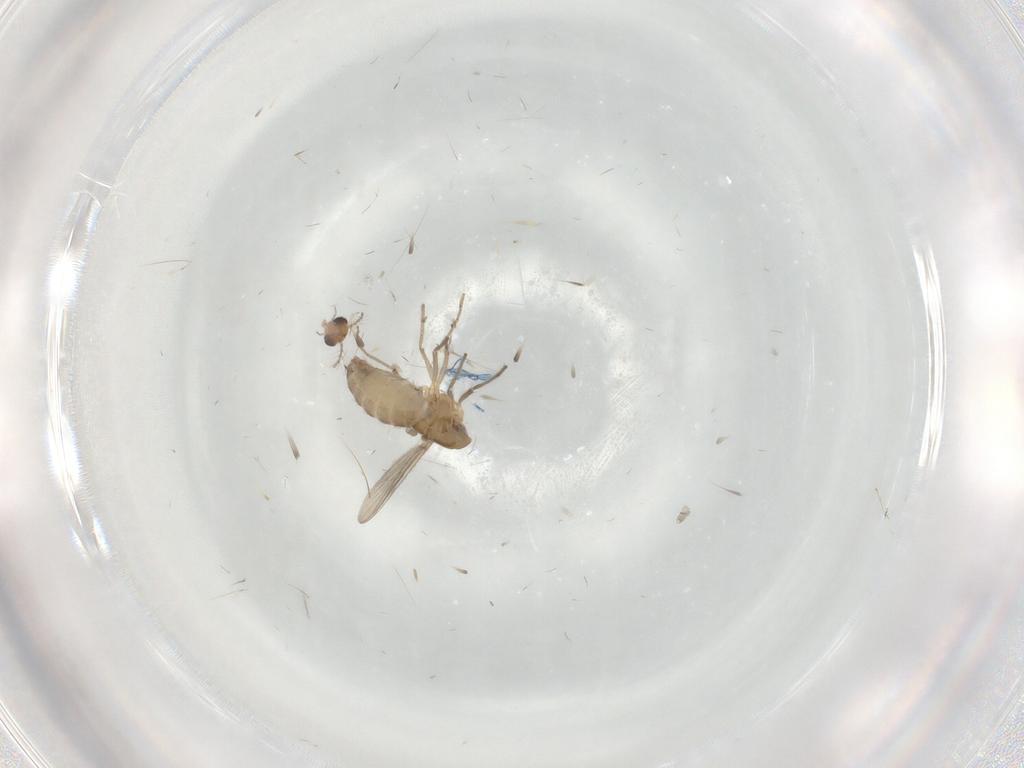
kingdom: Animalia
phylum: Arthropoda
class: Insecta
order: Diptera
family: Chironomidae
